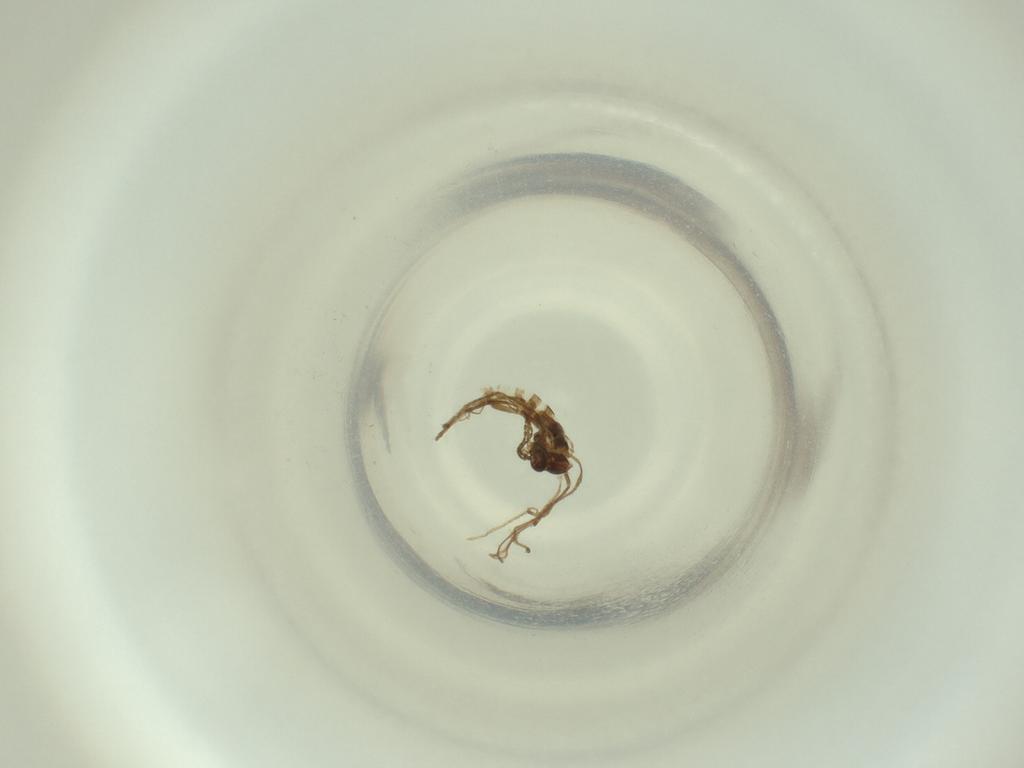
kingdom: Animalia
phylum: Arthropoda
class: Insecta
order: Diptera
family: Cecidomyiidae
